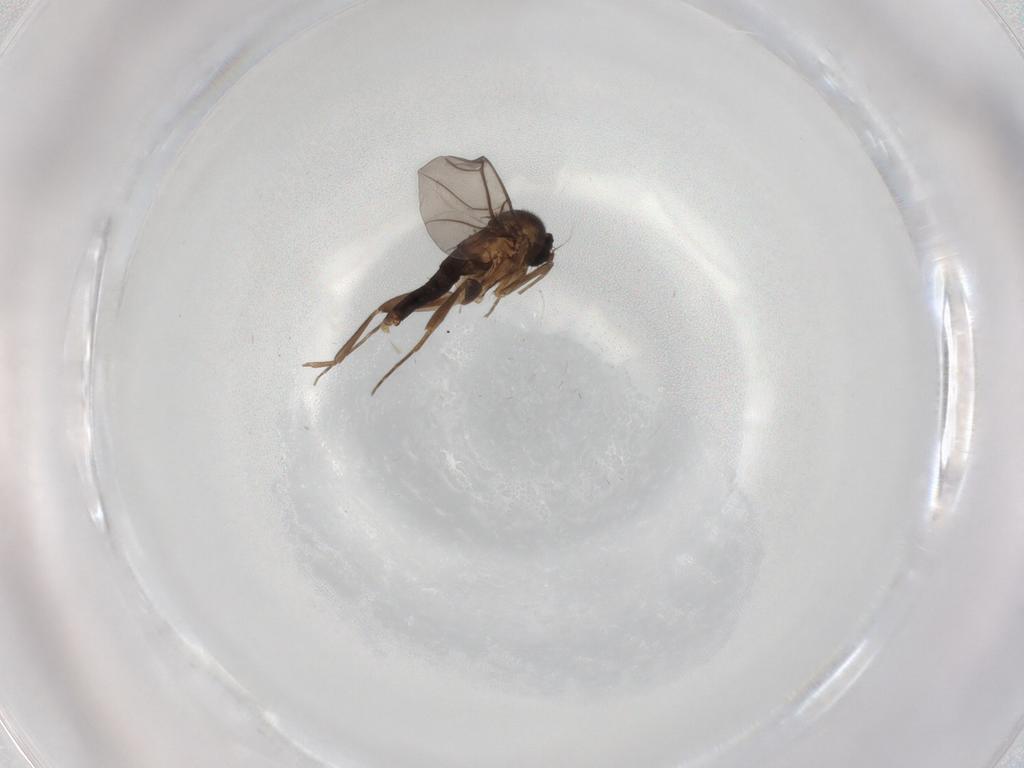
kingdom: Animalia
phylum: Arthropoda
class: Insecta
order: Diptera
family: Phoridae
